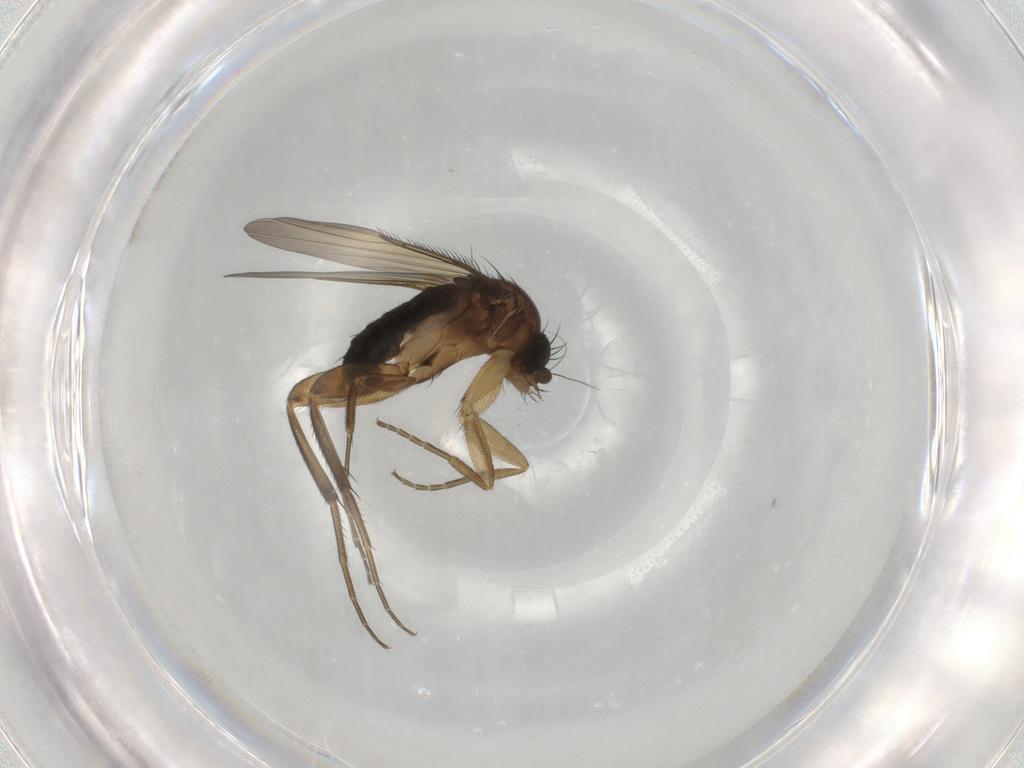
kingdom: Animalia
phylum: Arthropoda
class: Insecta
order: Diptera
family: Phoridae
